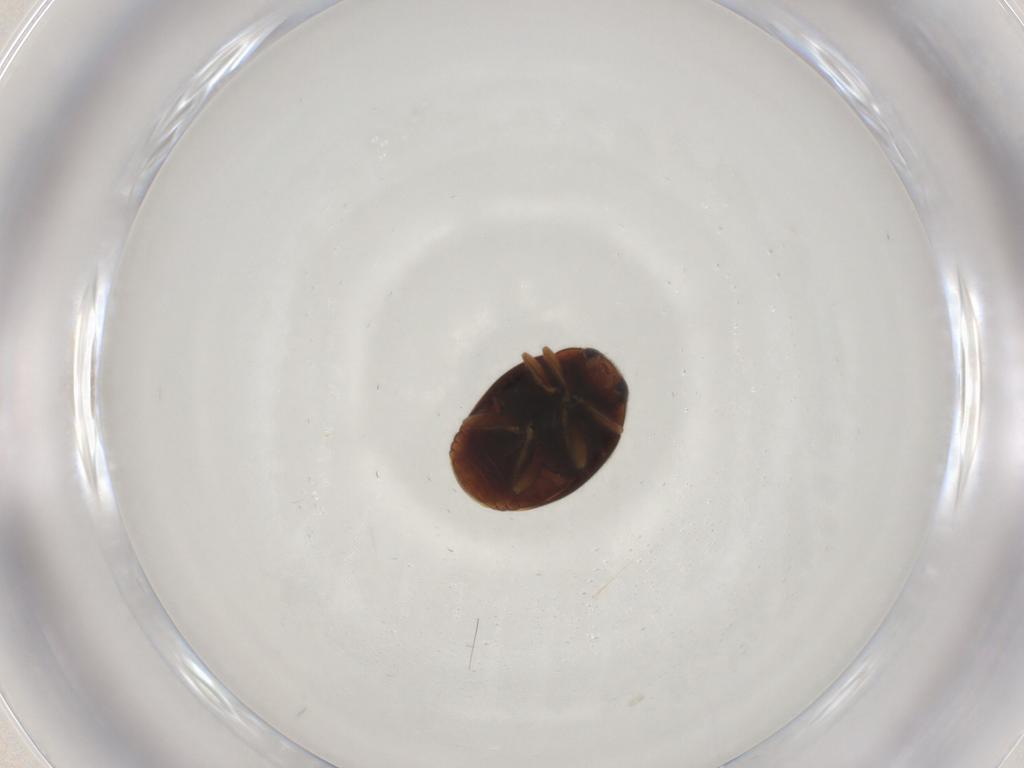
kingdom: Animalia
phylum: Arthropoda
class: Insecta
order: Coleoptera
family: Coccinellidae
